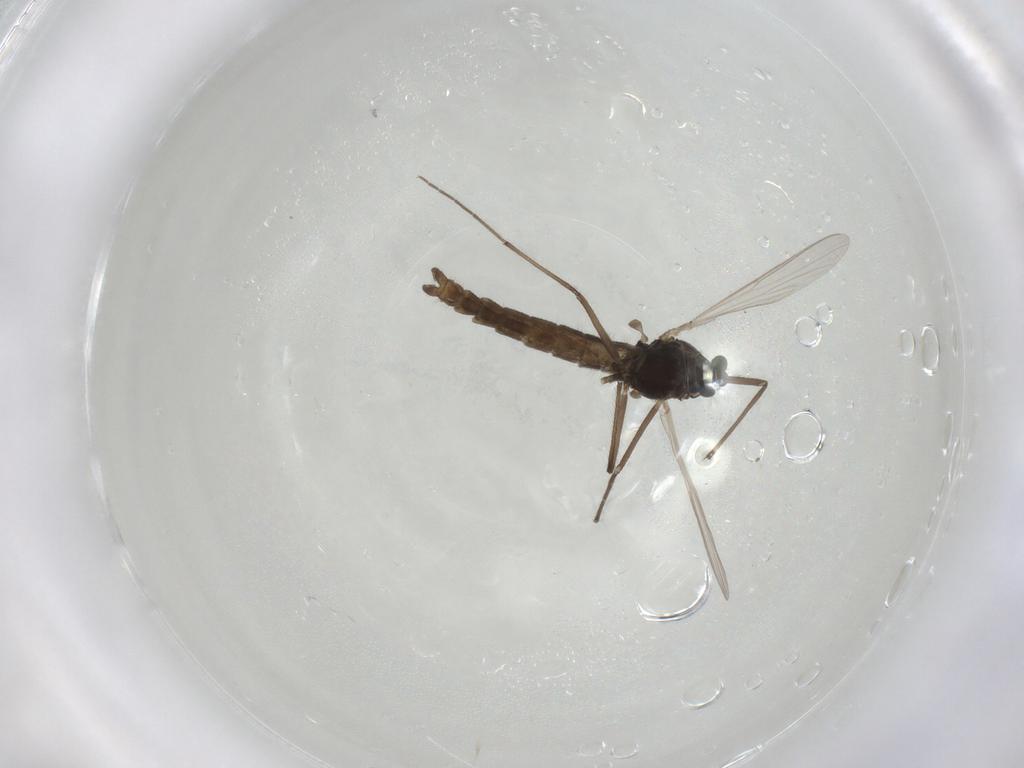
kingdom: Animalia
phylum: Arthropoda
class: Insecta
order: Diptera
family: Chironomidae
